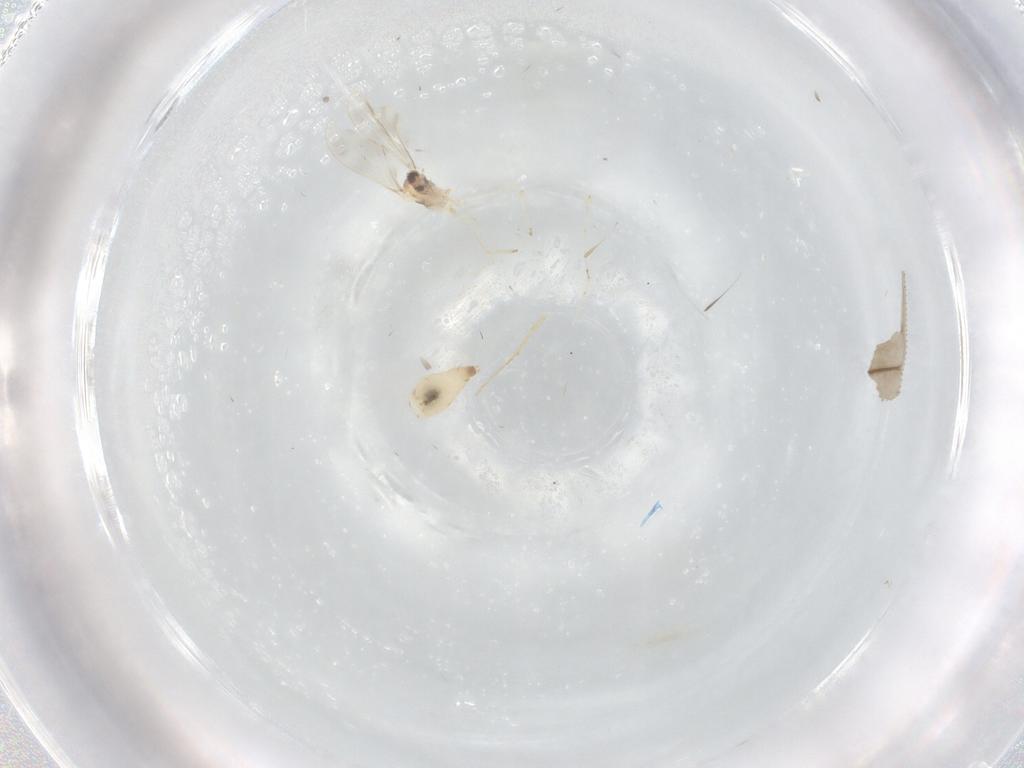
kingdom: Animalia
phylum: Arthropoda
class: Insecta
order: Diptera
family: Cecidomyiidae
